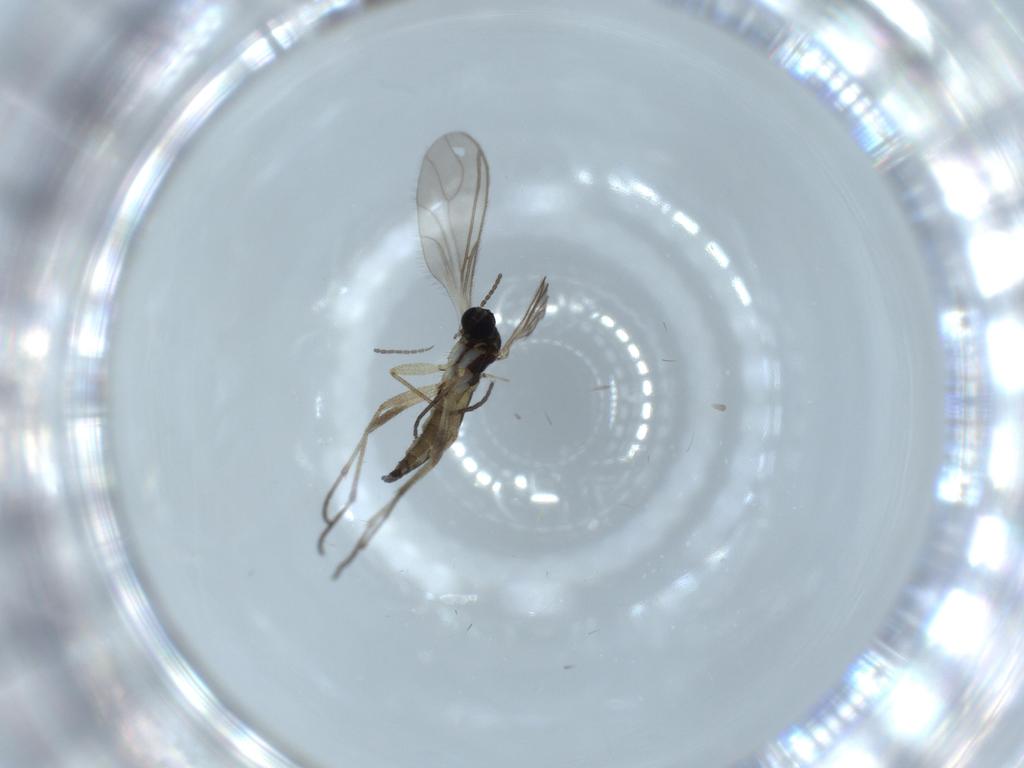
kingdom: Animalia
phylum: Arthropoda
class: Insecta
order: Diptera
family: Sciaridae
